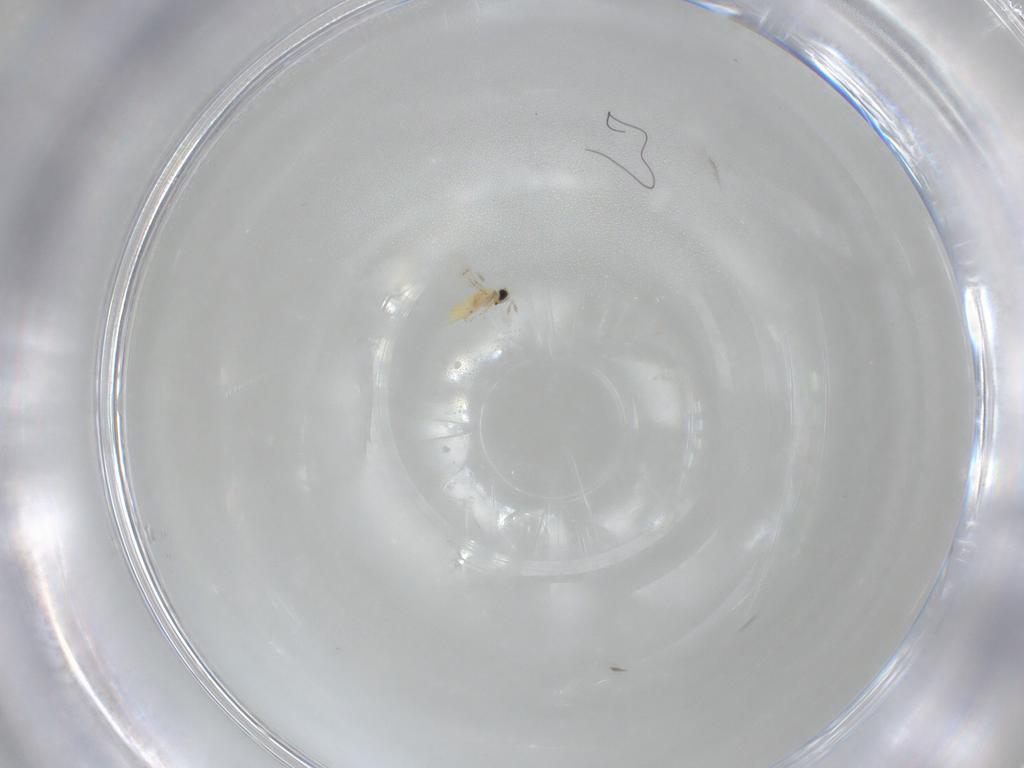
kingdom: Animalia
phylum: Arthropoda
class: Insecta
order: Hymenoptera
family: Trichogrammatidae
